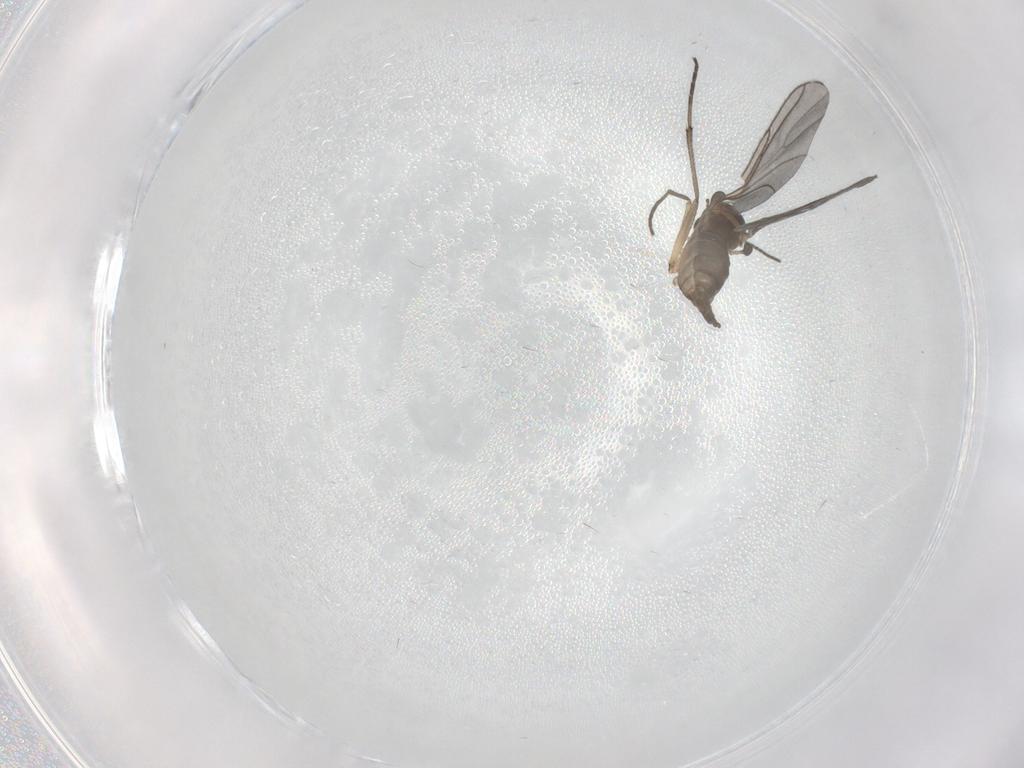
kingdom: Animalia
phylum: Arthropoda
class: Insecta
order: Diptera
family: Sciaridae
